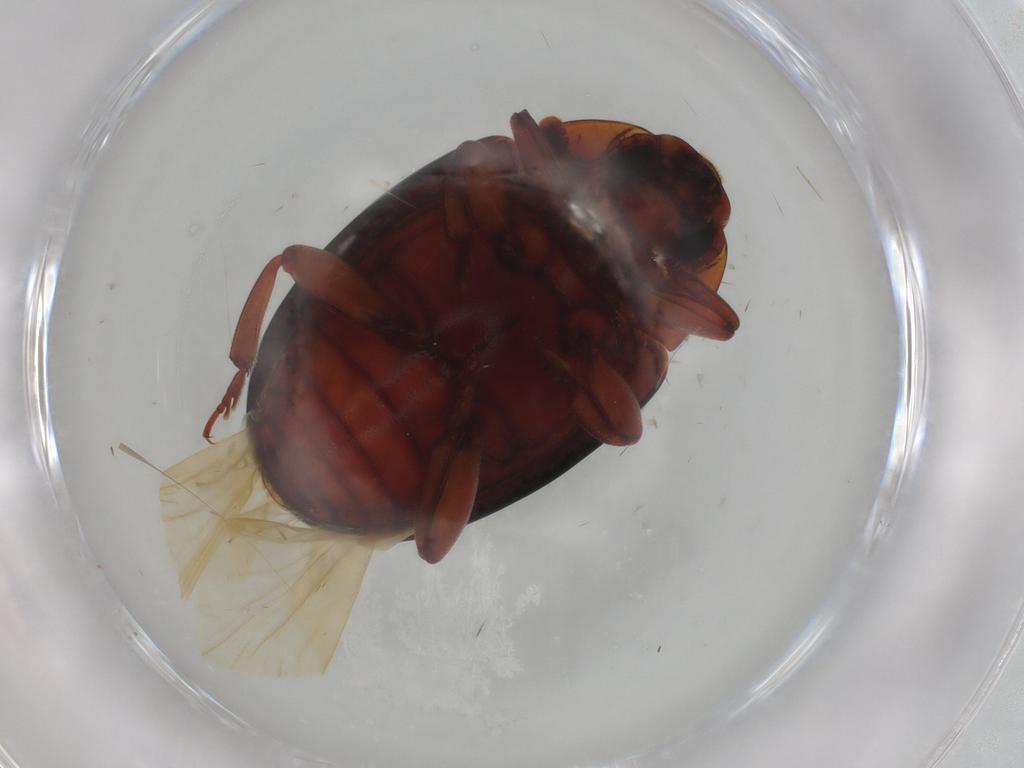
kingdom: Animalia
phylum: Arthropoda
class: Insecta
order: Coleoptera
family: Zopheridae
